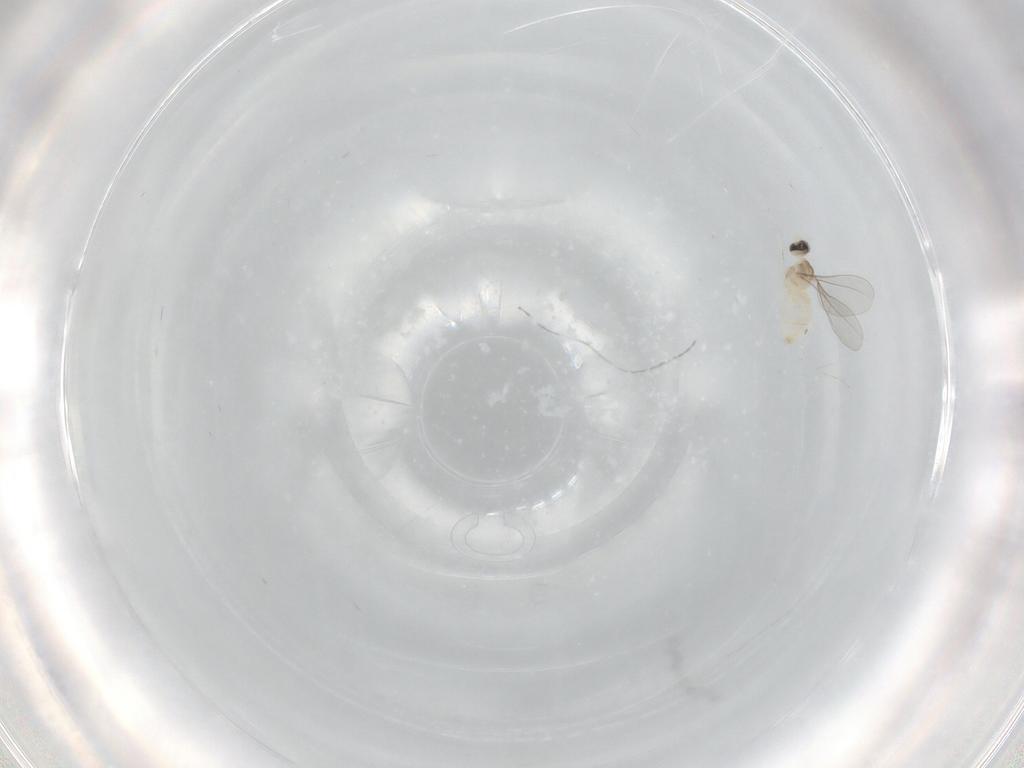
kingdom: Animalia
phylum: Arthropoda
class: Insecta
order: Diptera
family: Cecidomyiidae
